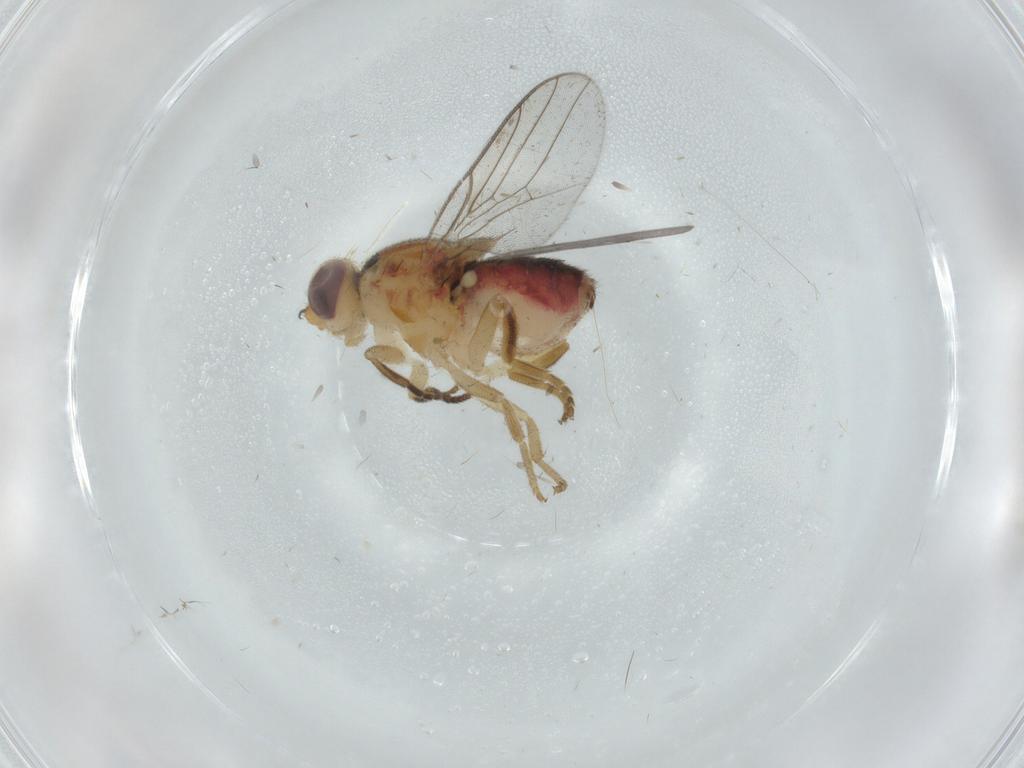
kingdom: Animalia
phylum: Arthropoda
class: Insecta
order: Diptera
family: Chloropidae
